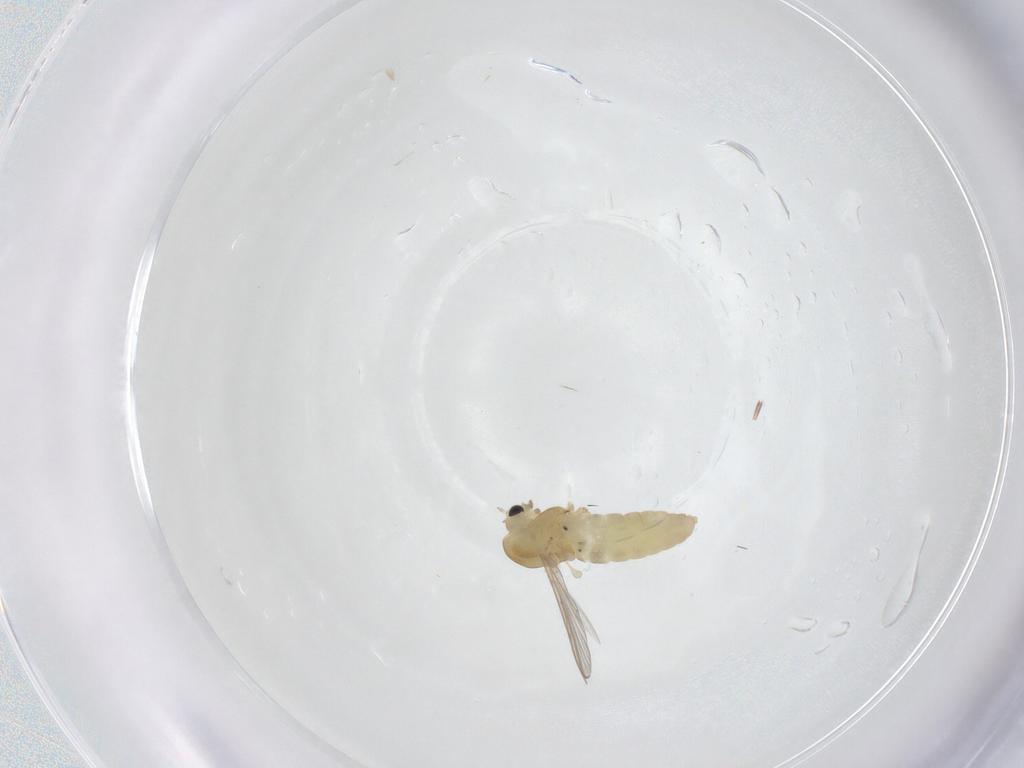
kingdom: Animalia
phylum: Arthropoda
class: Insecta
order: Diptera
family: Chironomidae
